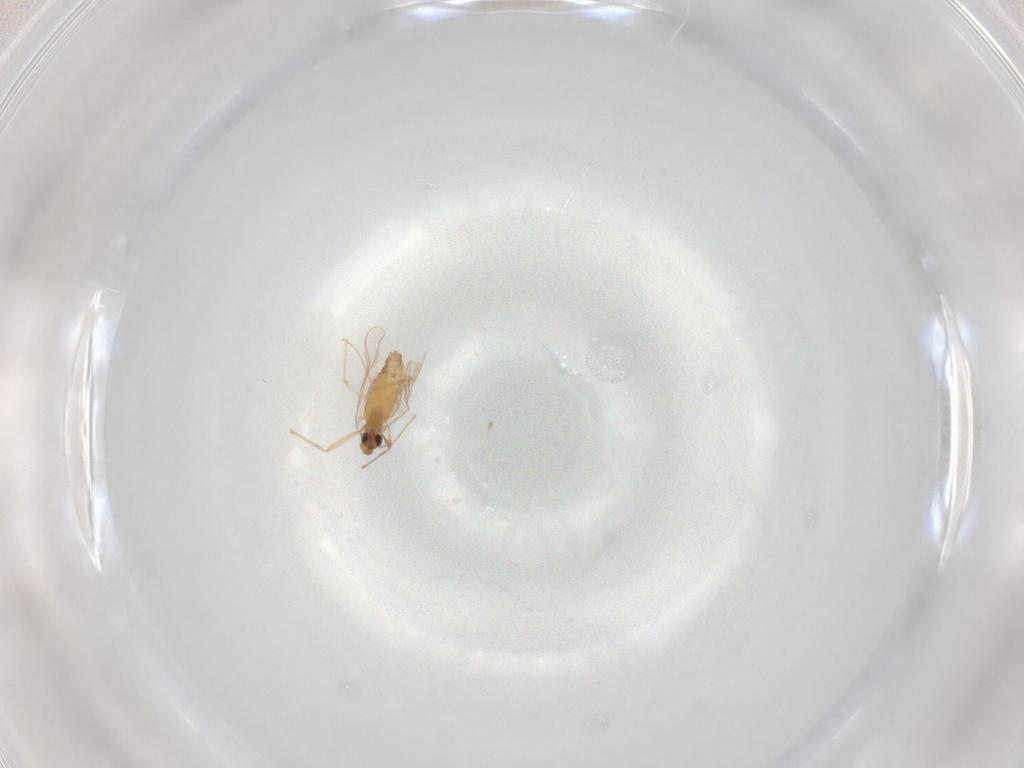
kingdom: Animalia
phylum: Arthropoda
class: Insecta
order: Diptera
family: Chironomidae
